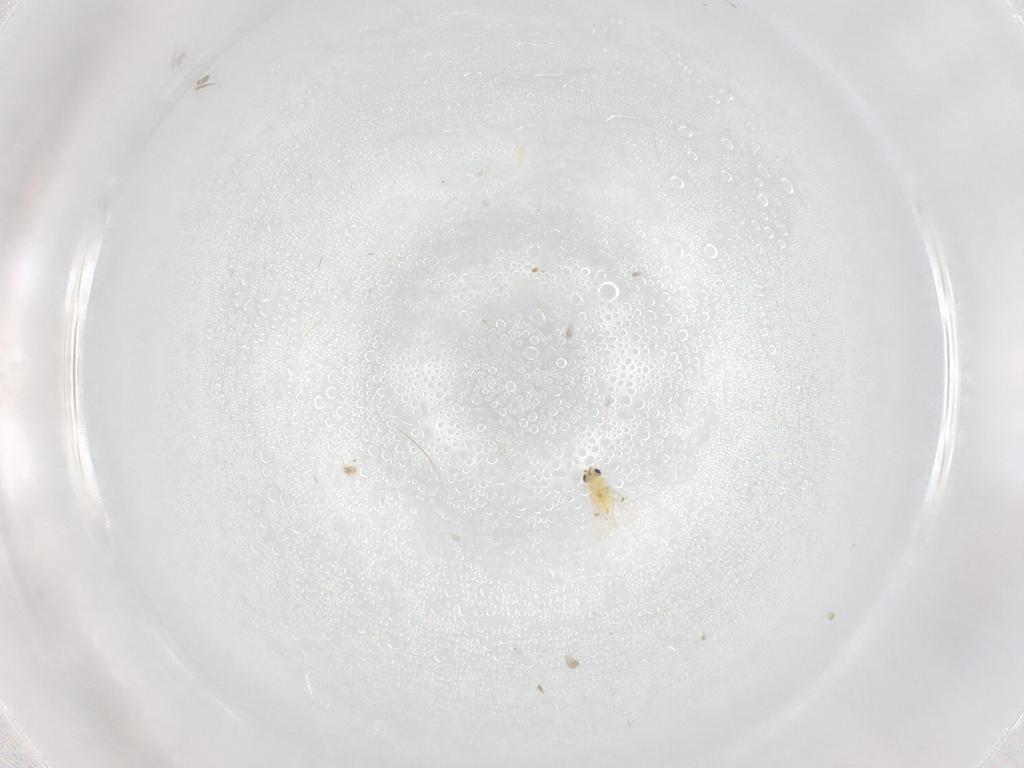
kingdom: Animalia
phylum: Arthropoda
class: Insecta
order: Hymenoptera
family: Trichogrammatidae
